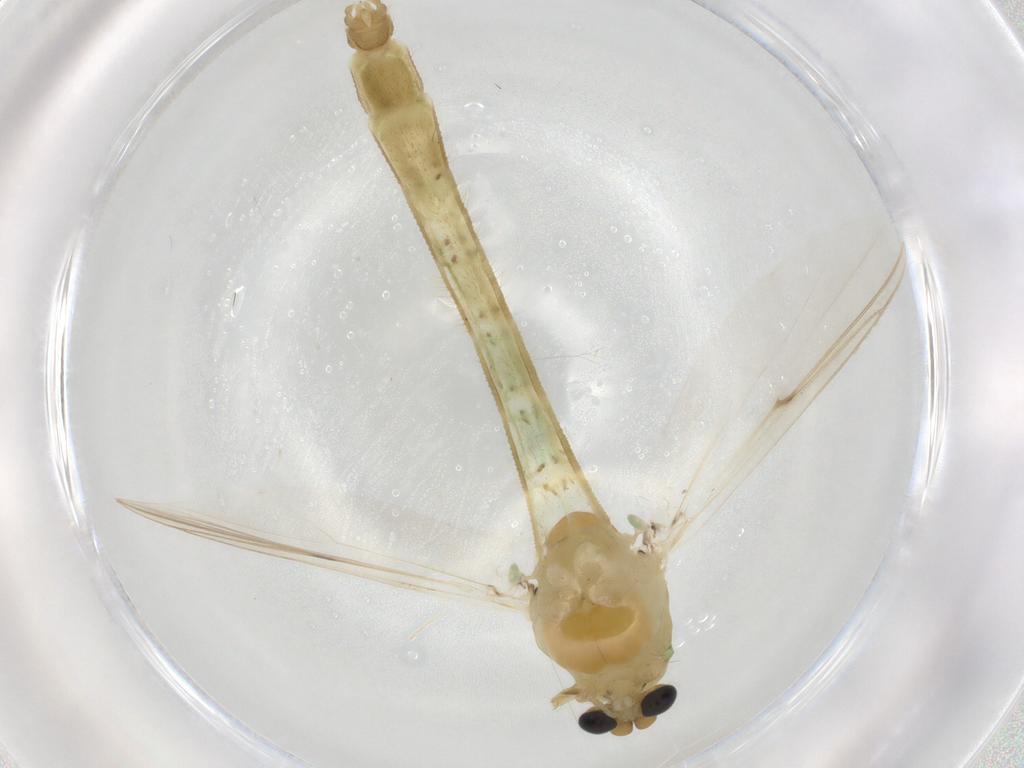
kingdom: Animalia
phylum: Arthropoda
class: Insecta
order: Diptera
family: Chironomidae
